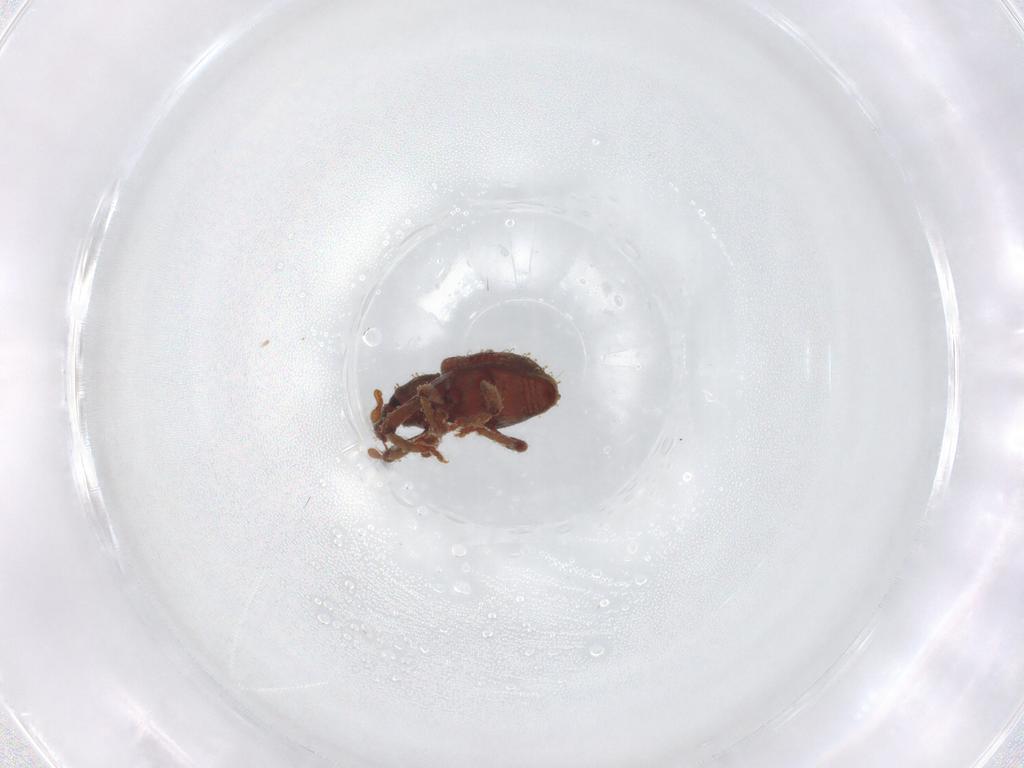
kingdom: Animalia
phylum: Arthropoda
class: Insecta
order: Coleoptera
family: Curculionidae
